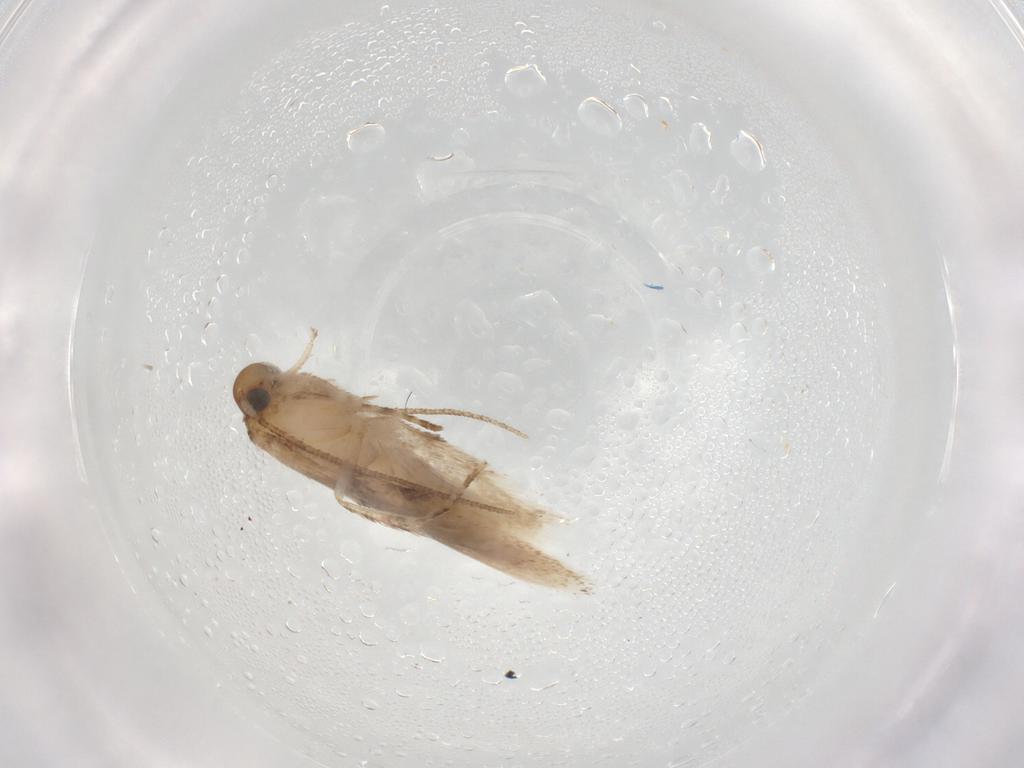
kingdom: Animalia
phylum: Arthropoda
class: Insecta
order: Lepidoptera
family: Gelechiidae
